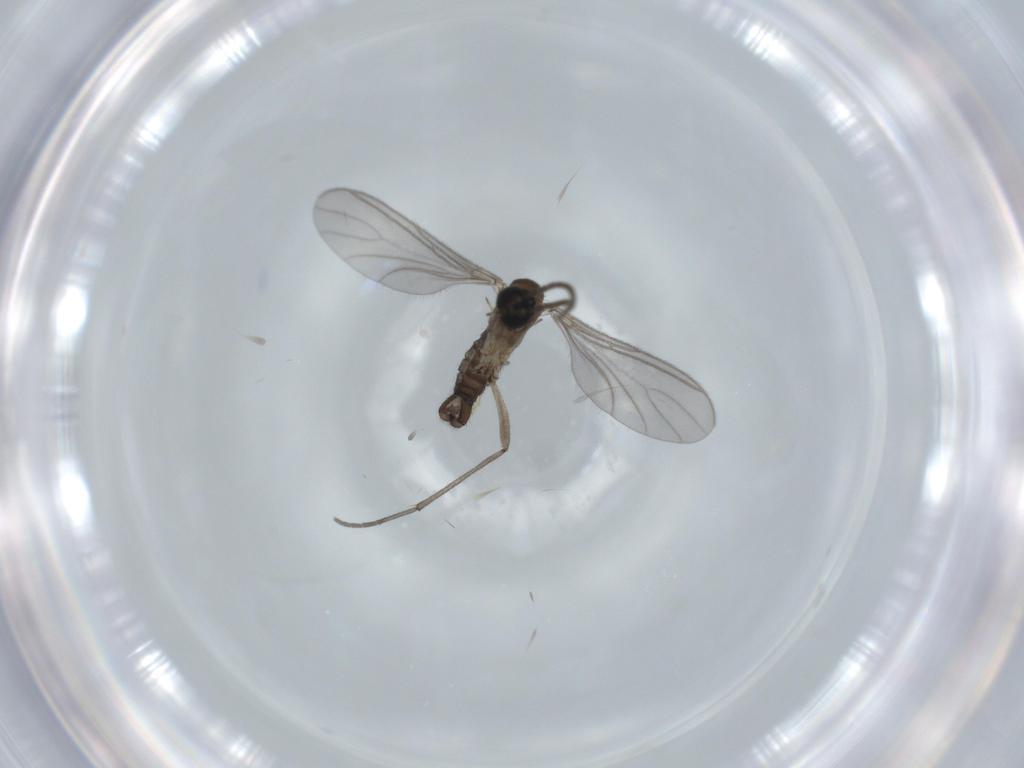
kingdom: Animalia
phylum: Arthropoda
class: Insecta
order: Diptera
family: Sciaridae
